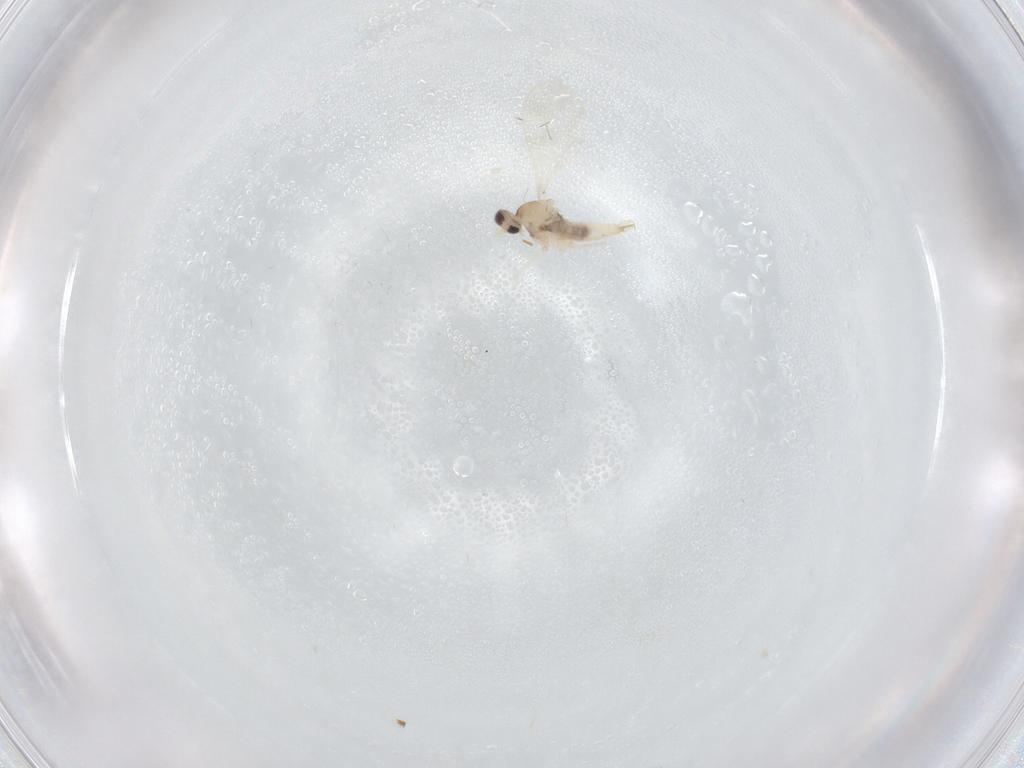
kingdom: Animalia
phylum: Arthropoda
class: Insecta
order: Diptera
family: Cecidomyiidae
